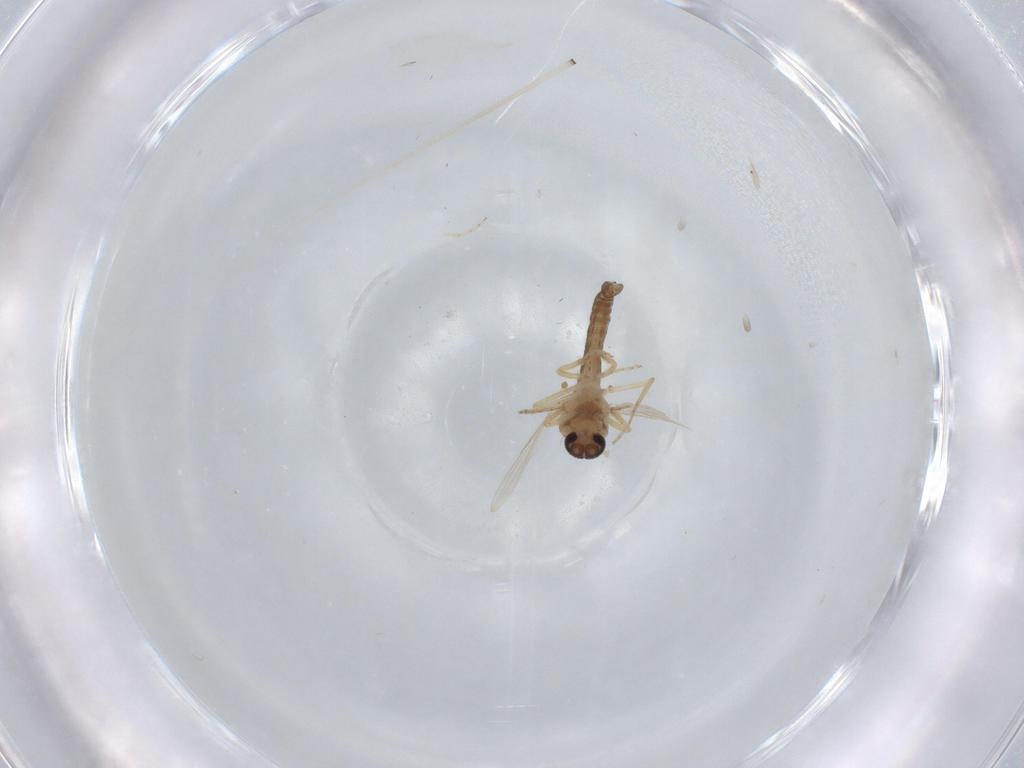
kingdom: Animalia
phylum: Arthropoda
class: Insecta
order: Diptera
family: Ceratopogonidae
